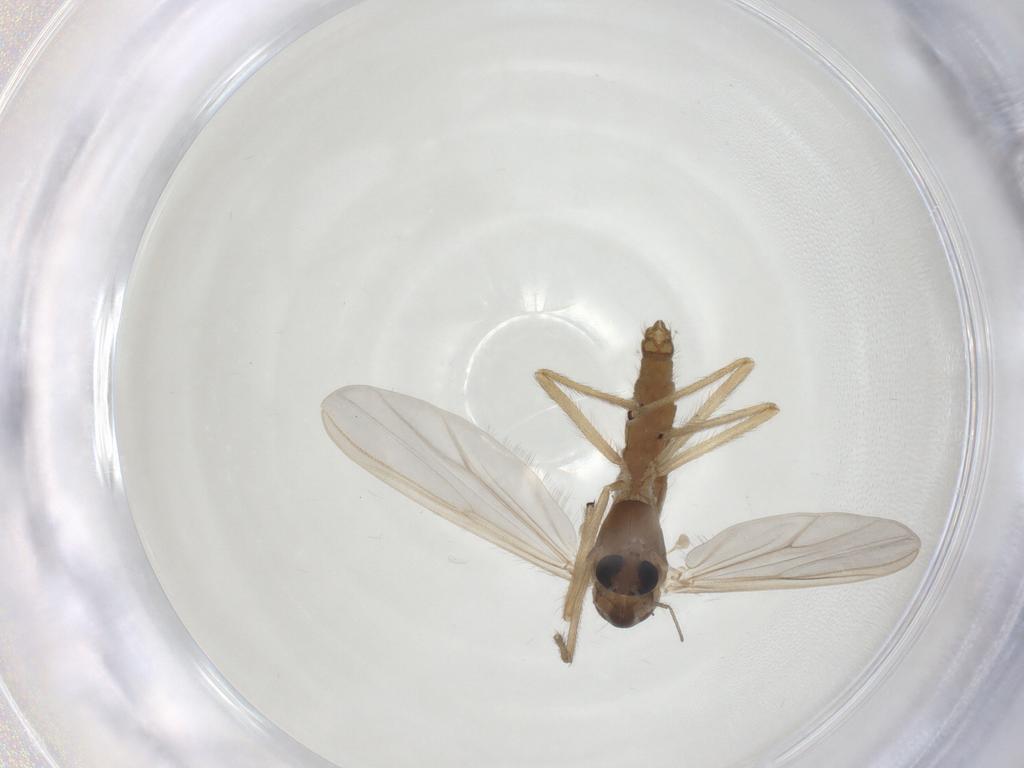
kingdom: Animalia
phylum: Arthropoda
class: Insecta
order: Diptera
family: Chironomidae
